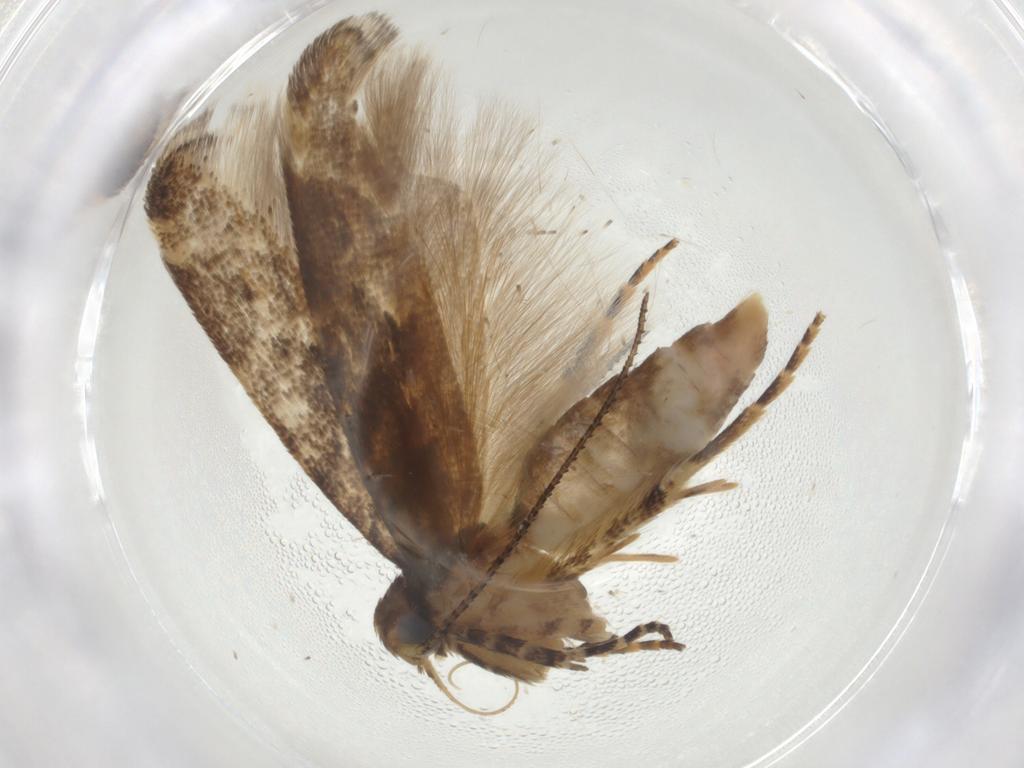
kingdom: Animalia
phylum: Arthropoda
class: Insecta
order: Lepidoptera
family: Gelechiidae
